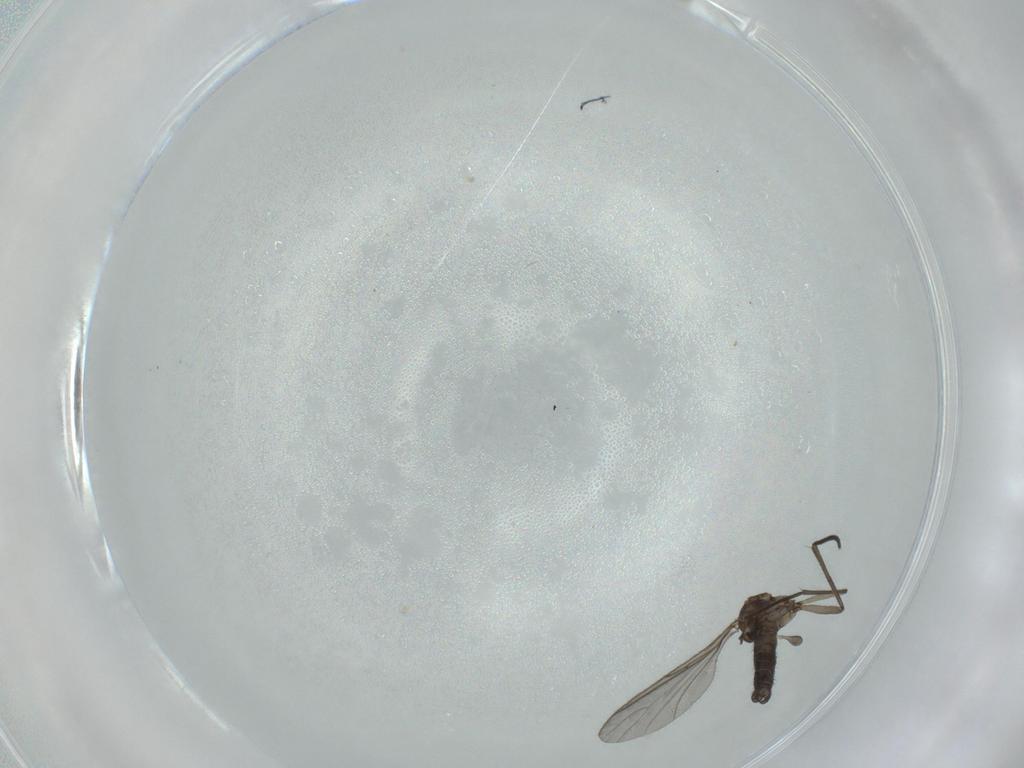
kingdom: Animalia
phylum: Arthropoda
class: Insecta
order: Diptera
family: Sciaridae
